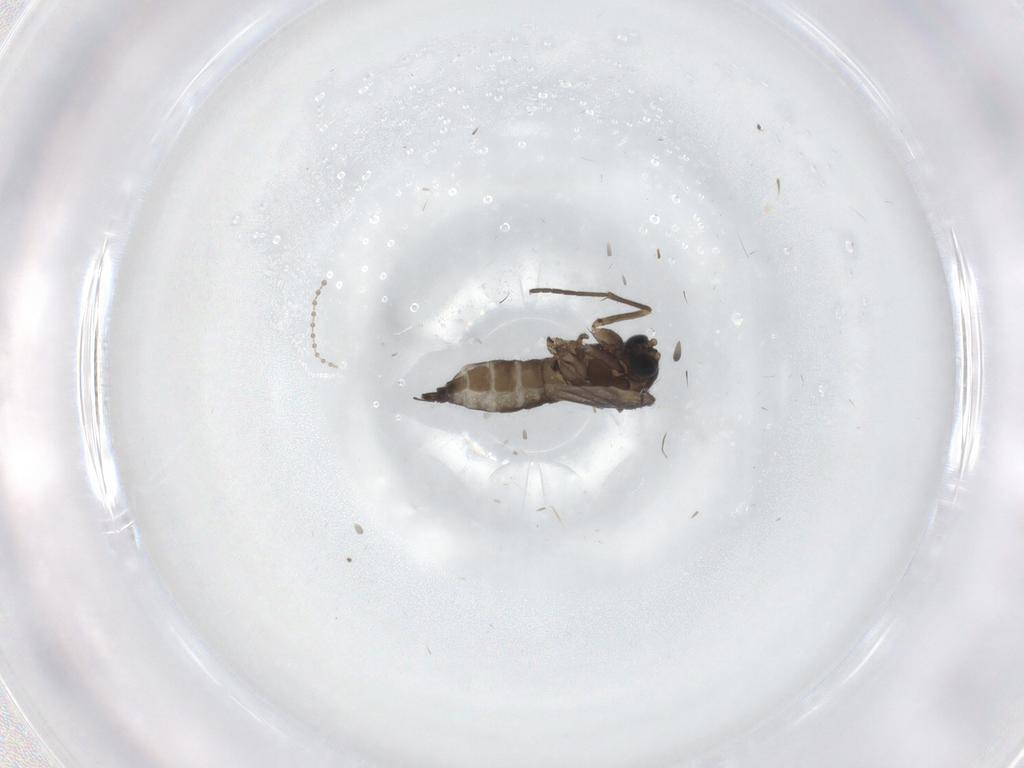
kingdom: Animalia
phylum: Arthropoda
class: Insecta
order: Diptera
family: Sciaridae
